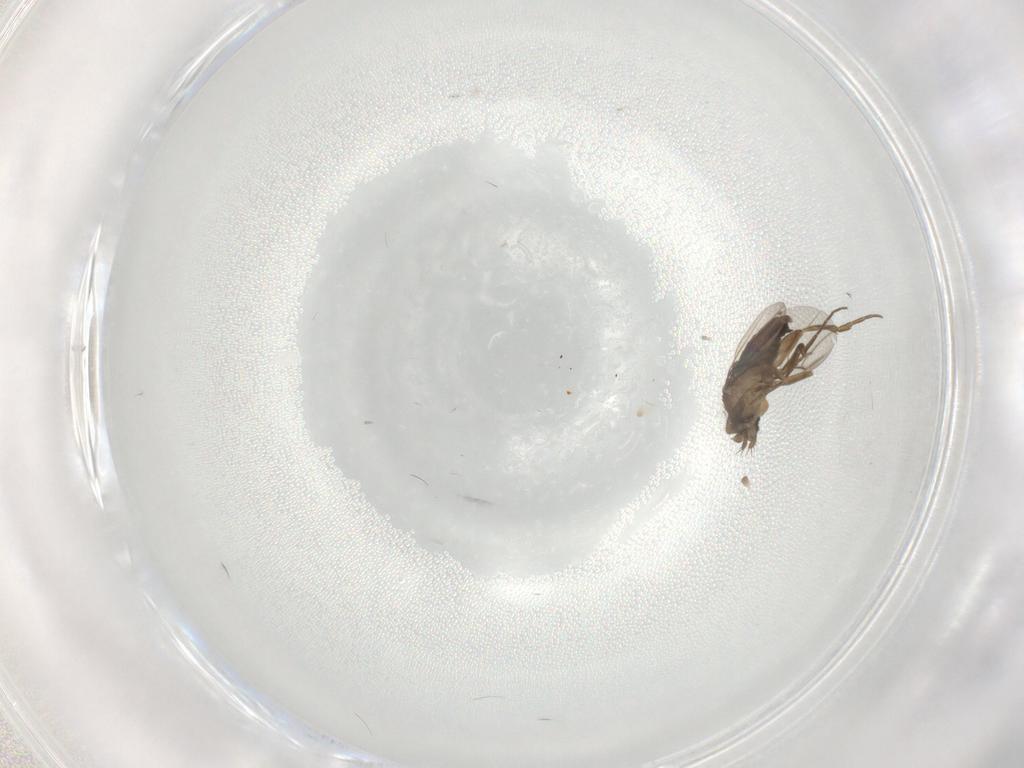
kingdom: Animalia
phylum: Arthropoda
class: Insecta
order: Diptera
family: Phoridae
